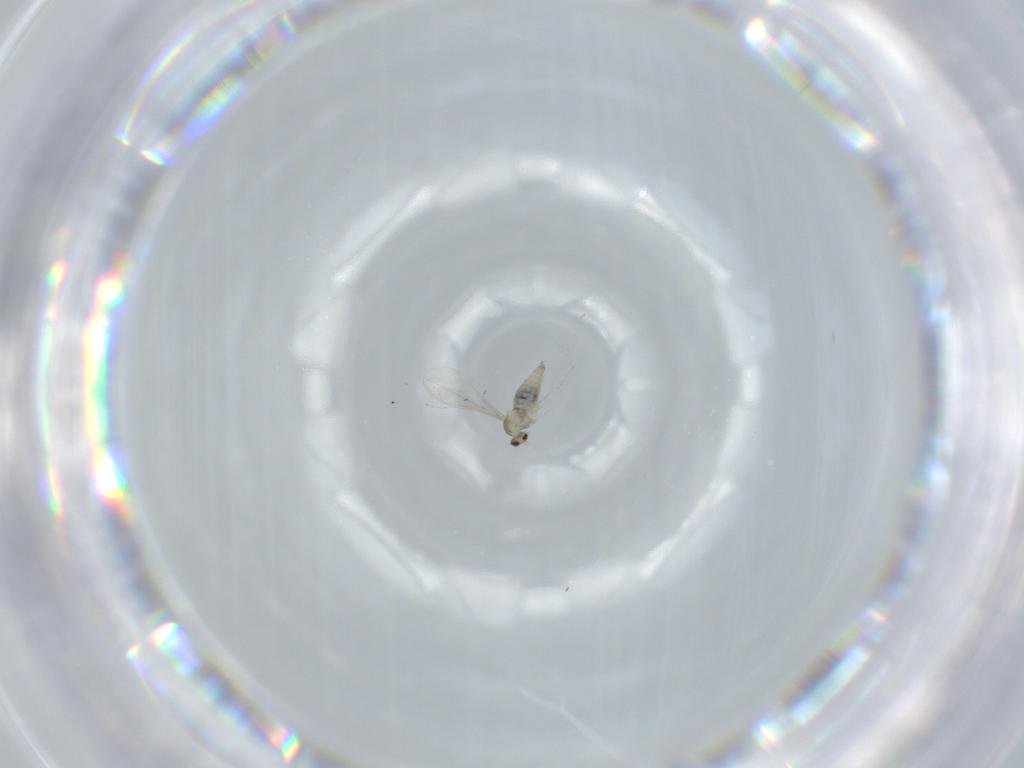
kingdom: Animalia
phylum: Arthropoda
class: Insecta
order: Diptera
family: Cecidomyiidae
